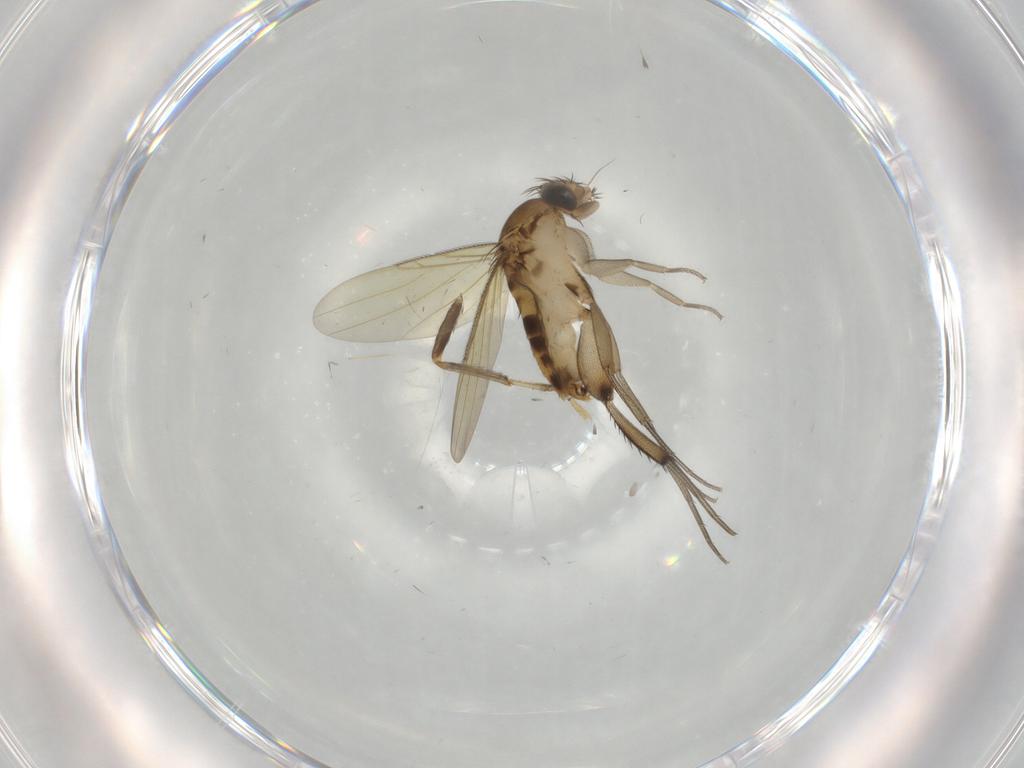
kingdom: Animalia
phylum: Arthropoda
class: Insecta
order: Diptera
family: Phoridae
